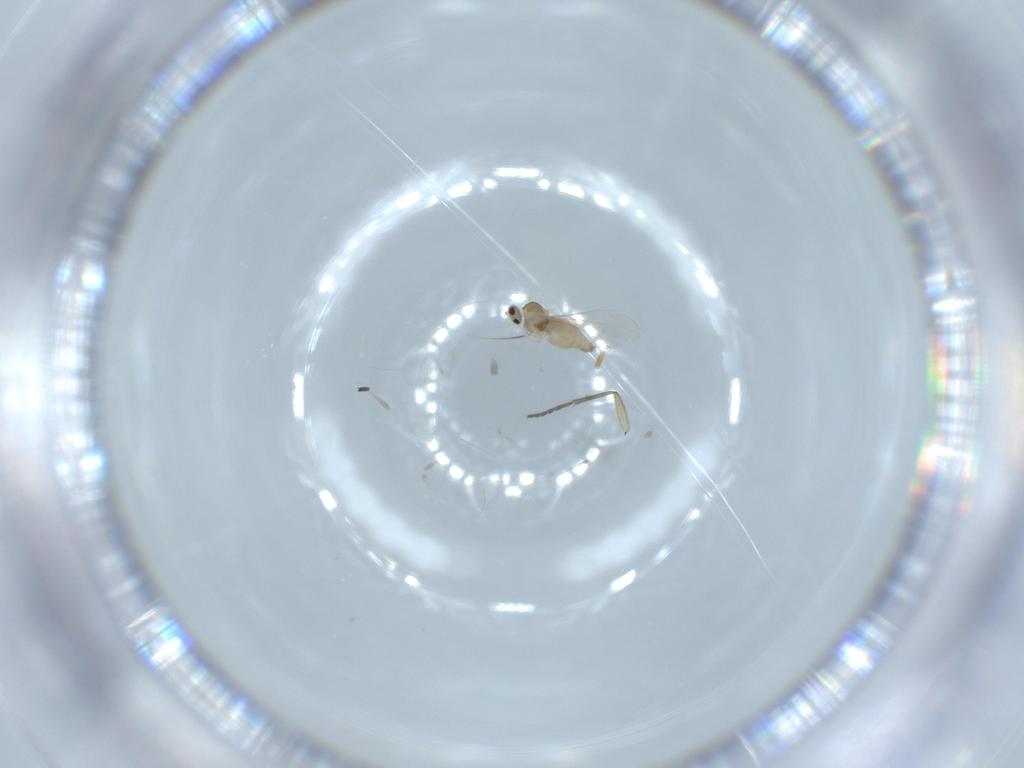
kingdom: Animalia
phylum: Arthropoda
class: Insecta
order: Diptera
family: Cecidomyiidae
